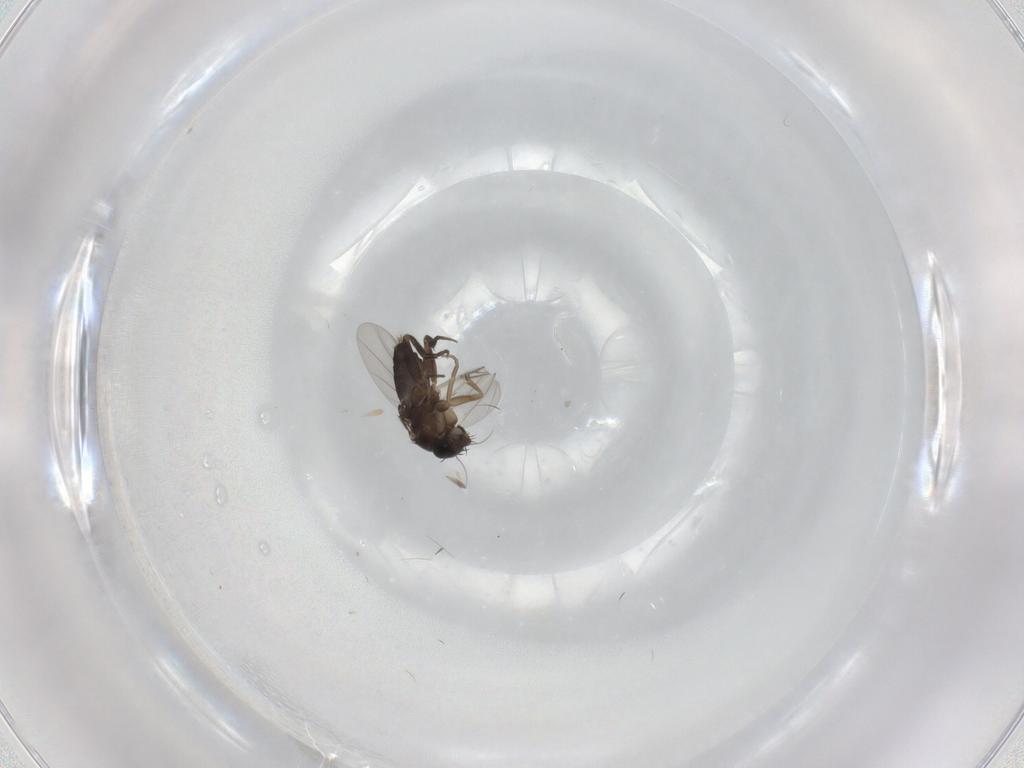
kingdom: Animalia
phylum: Arthropoda
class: Insecta
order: Diptera
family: Phoridae
